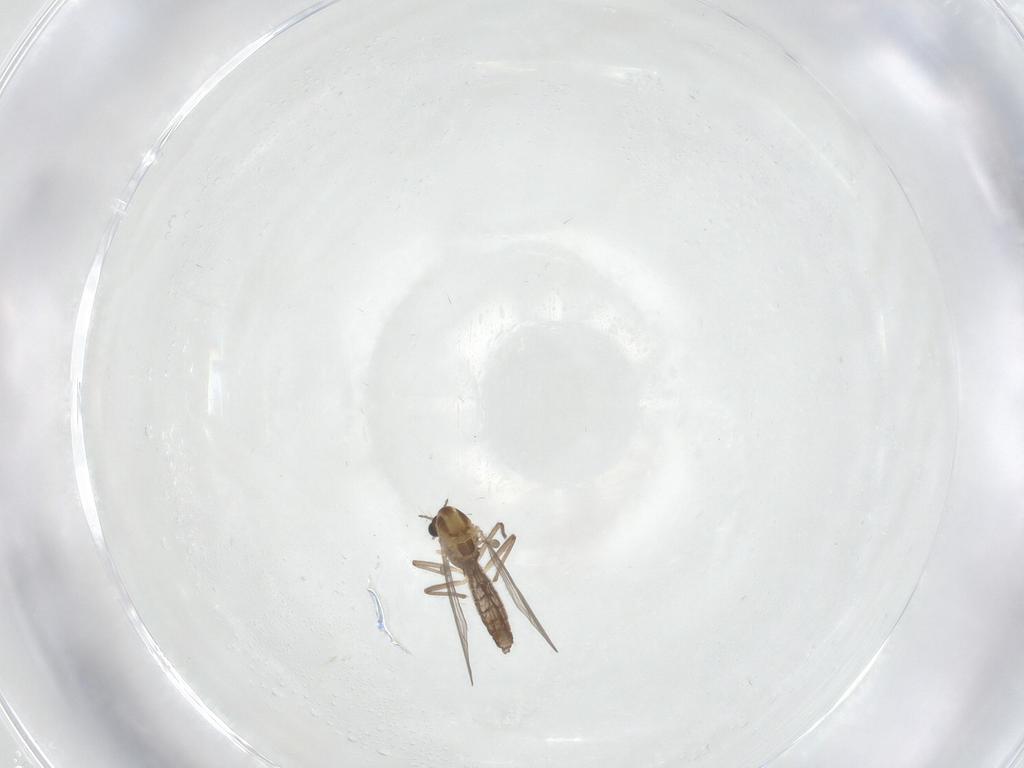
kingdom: Animalia
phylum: Arthropoda
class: Insecta
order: Diptera
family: Chironomidae
